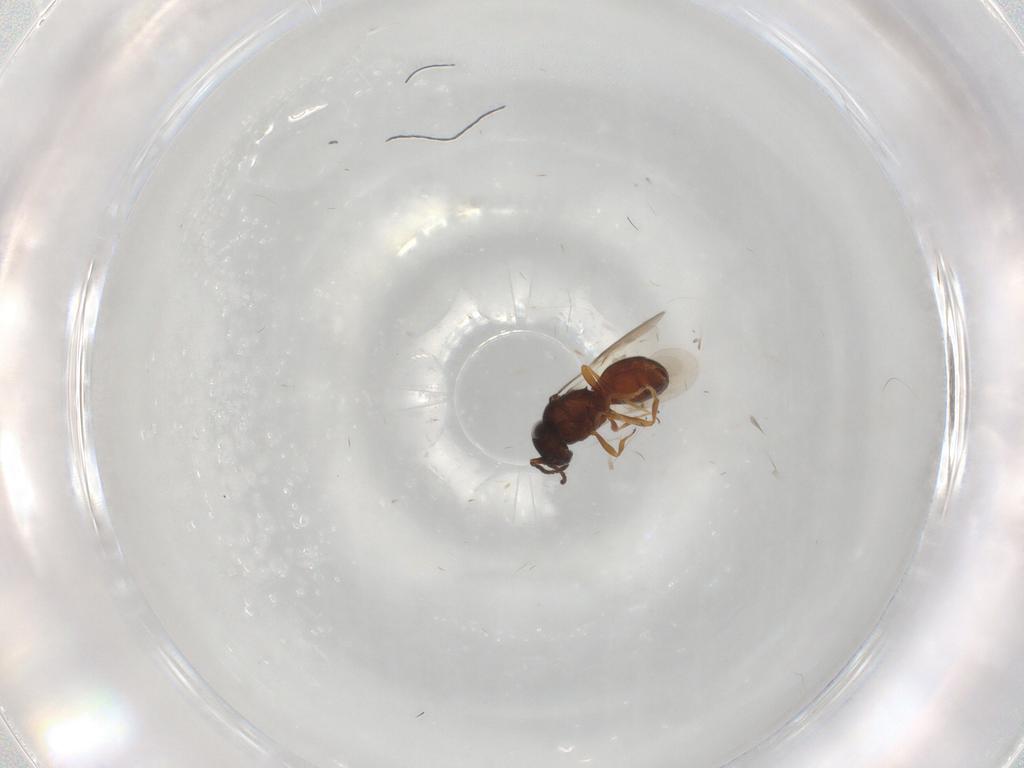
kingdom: Animalia
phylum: Arthropoda
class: Insecta
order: Hymenoptera
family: Scelionidae
